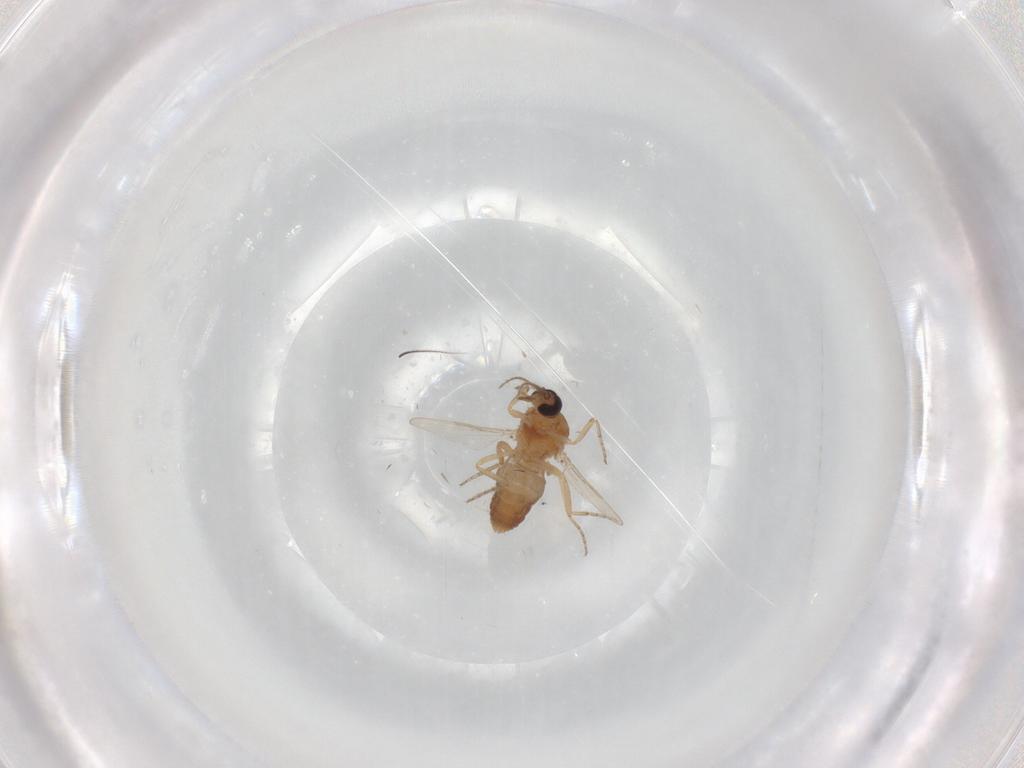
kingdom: Animalia
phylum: Arthropoda
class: Insecta
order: Diptera
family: Ceratopogonidae
